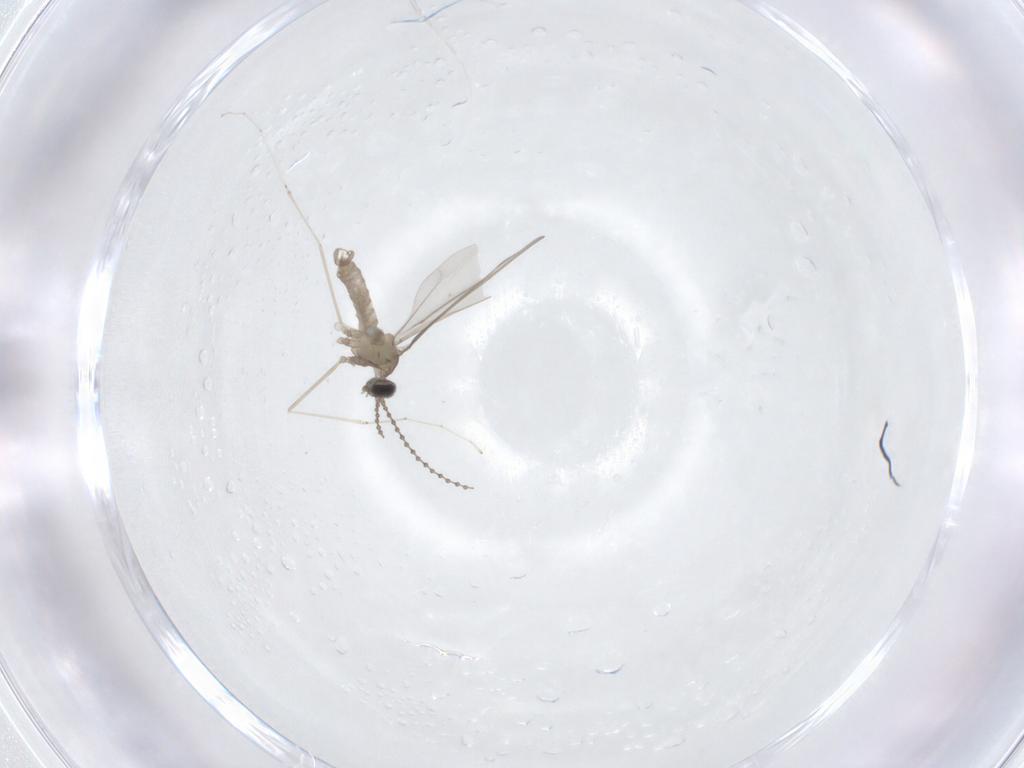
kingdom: Animalia
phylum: Arthropoda
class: Insecta
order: Diptera
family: Cecidomyiidae
